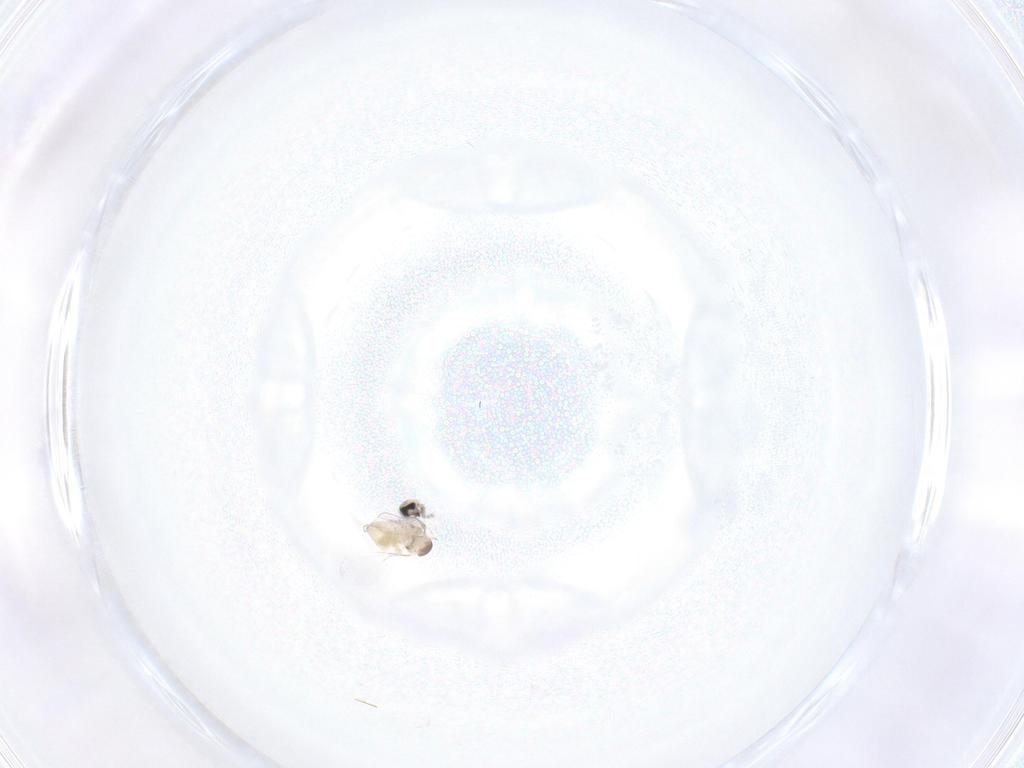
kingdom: Animalia
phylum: Arthropoda
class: Insecta
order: Diptera
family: Cecidomyiidae
